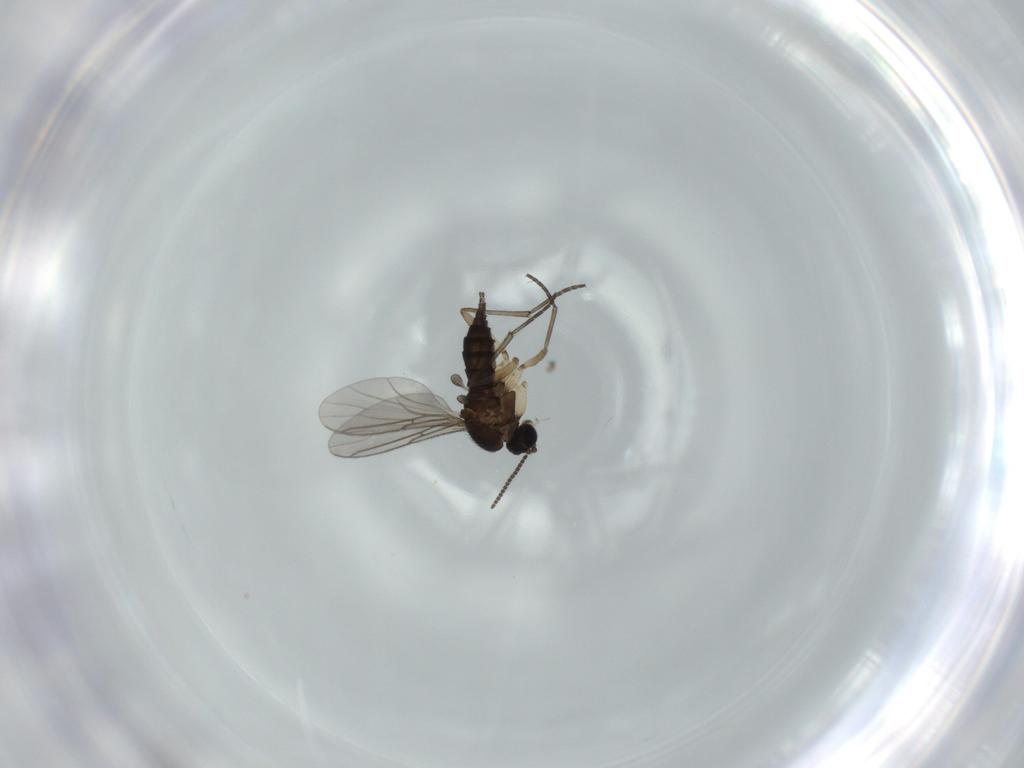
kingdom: Animalia
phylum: Arthropoda
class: Insecta
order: Diptera
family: Sciaridae
